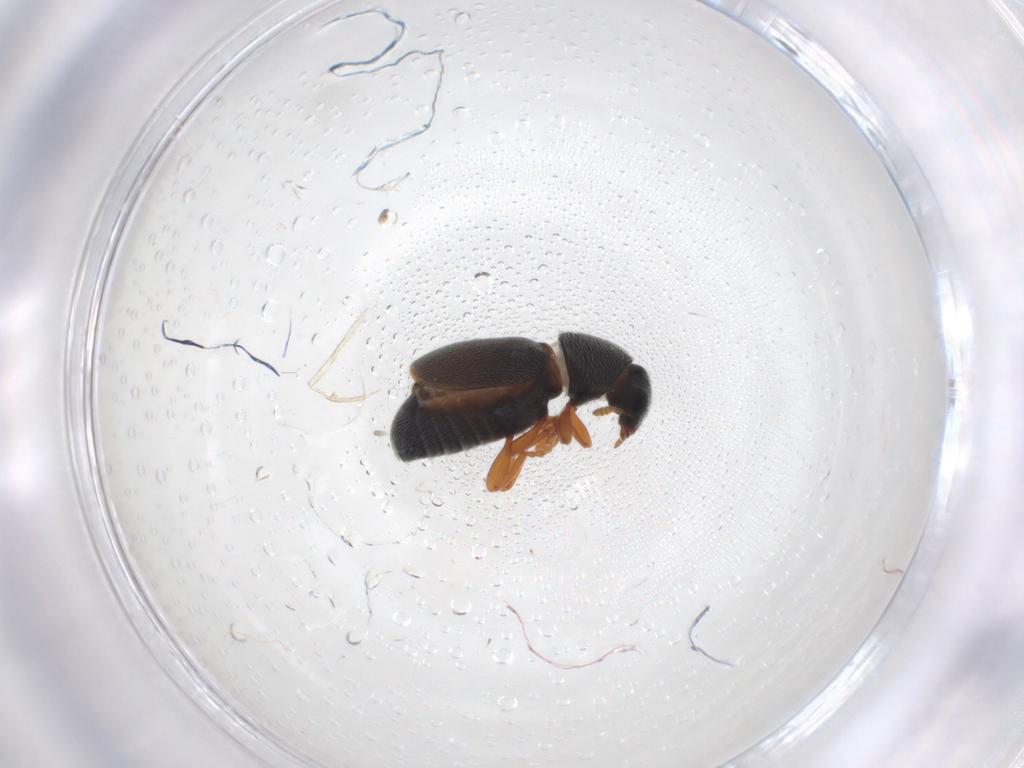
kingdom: Animalia
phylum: Arthropoda
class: Insecta
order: Coleoptera
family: Anthribidae
